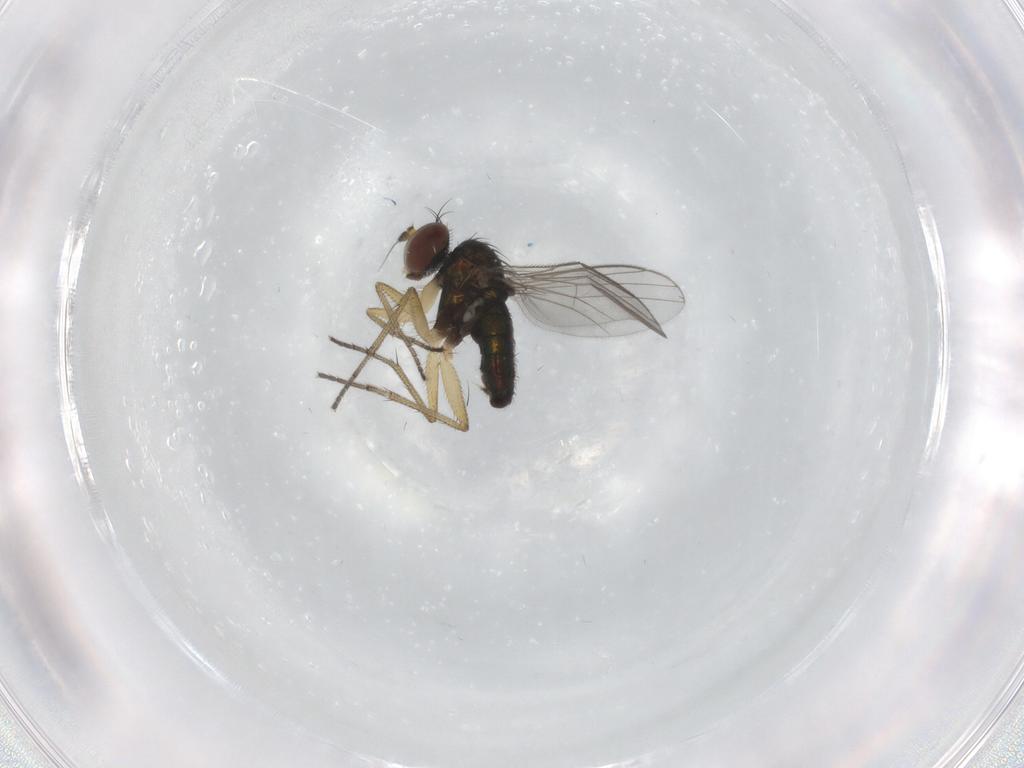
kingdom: Animalia
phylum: Arthropoda
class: Insecta
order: Diptera
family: Dolichopodidae
